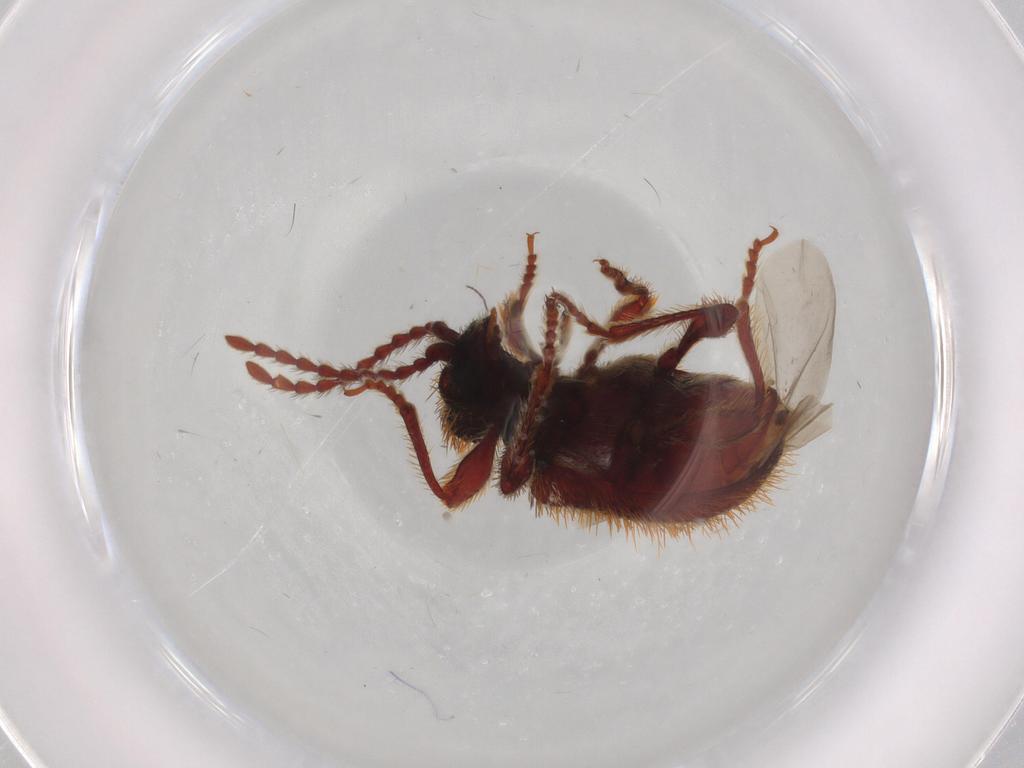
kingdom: Animalia
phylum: Arthropoda
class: Insecta
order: Coleoptera
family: Ptinidae
